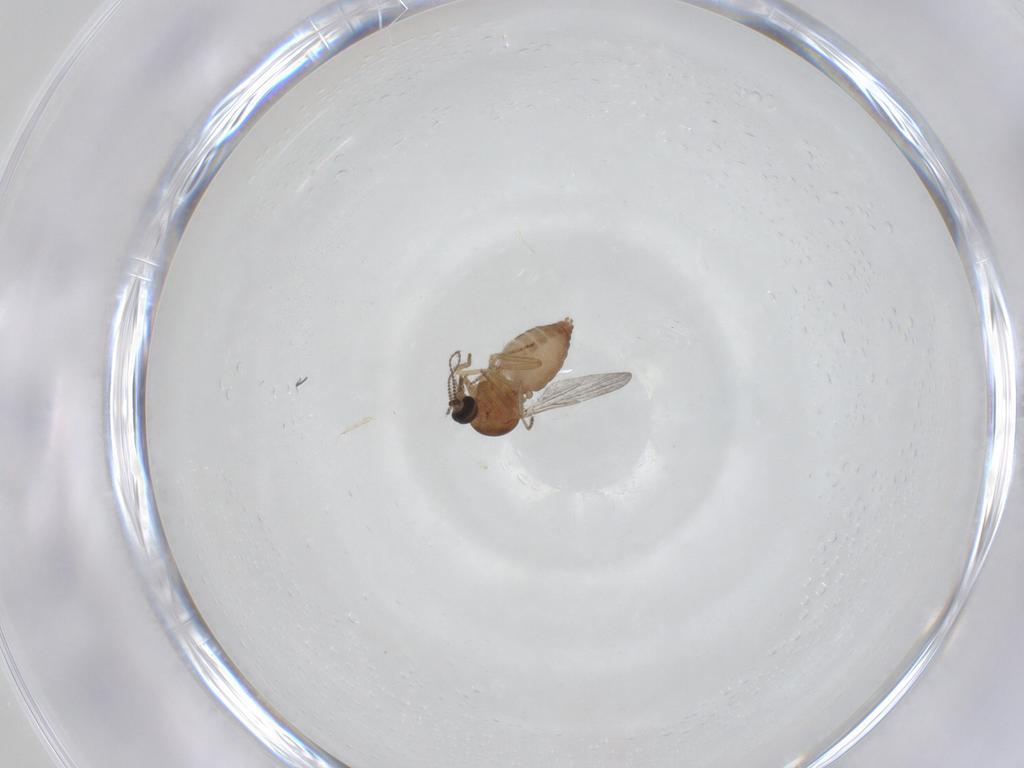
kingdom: Animalia
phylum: Arthropoda
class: Insecta
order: Diptera
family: Ceratopogonidae
